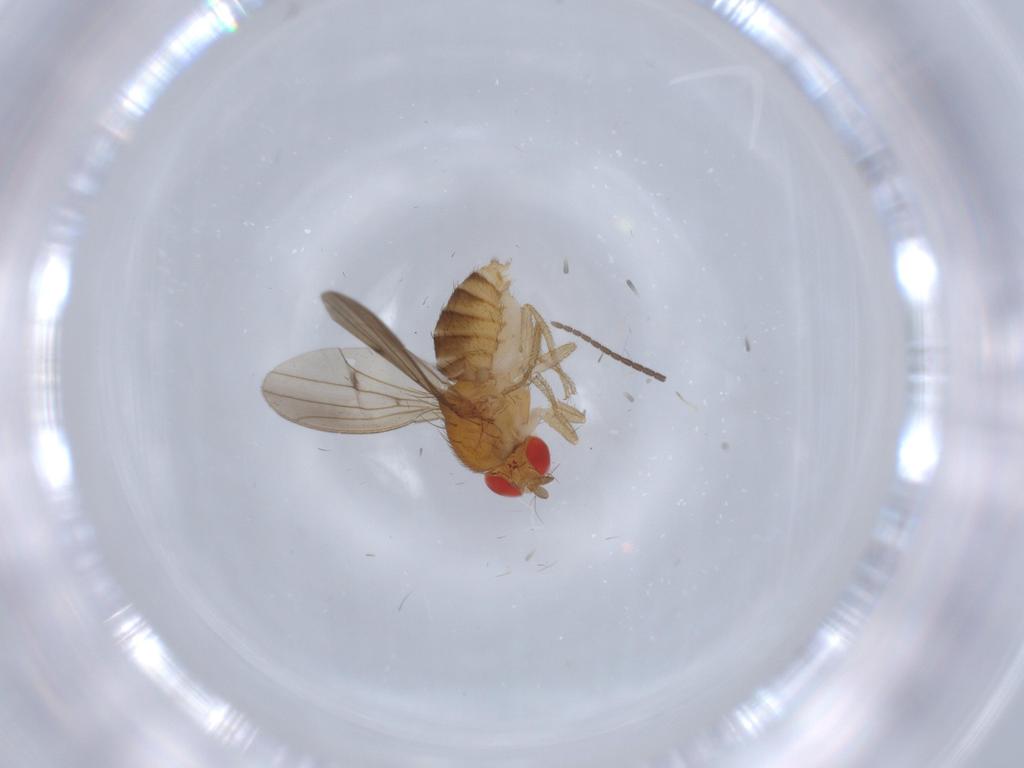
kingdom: Animalia
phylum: Arthropoda
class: Insecta
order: Diptera
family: Drosophilidae
